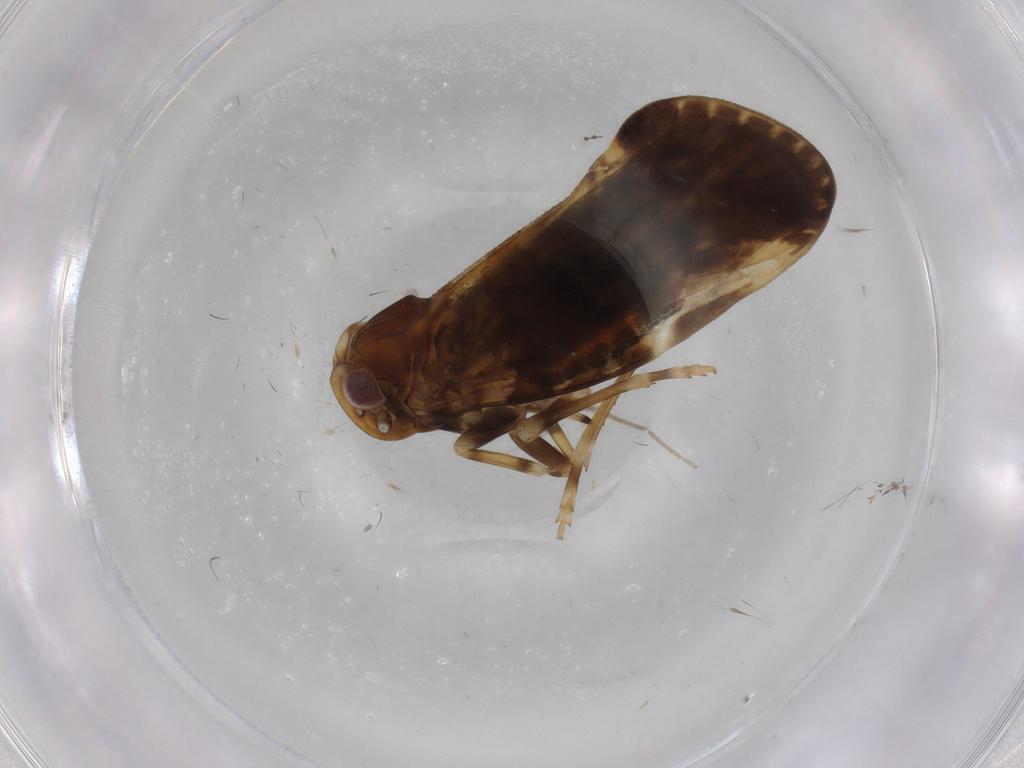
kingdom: Animalia
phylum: Arthropoda
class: Insecta
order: Hemiptera
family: Cixiidae
